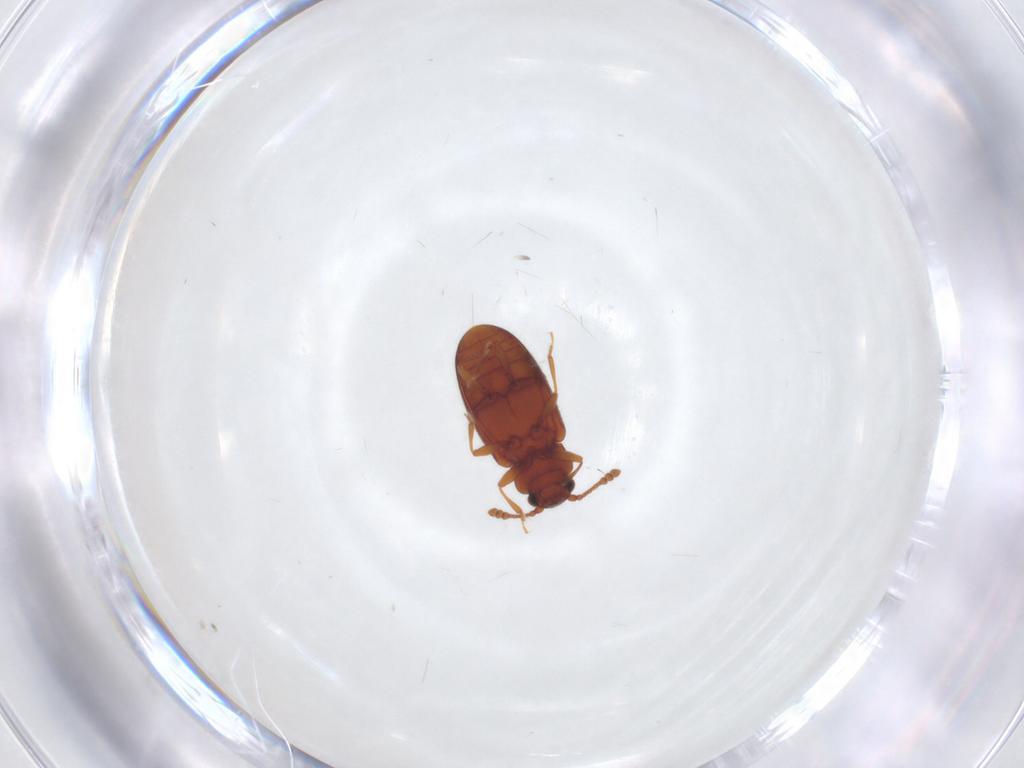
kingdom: Animalia
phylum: Arthropoda
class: Insecta
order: Coleoptera
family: Cryptophagidae
